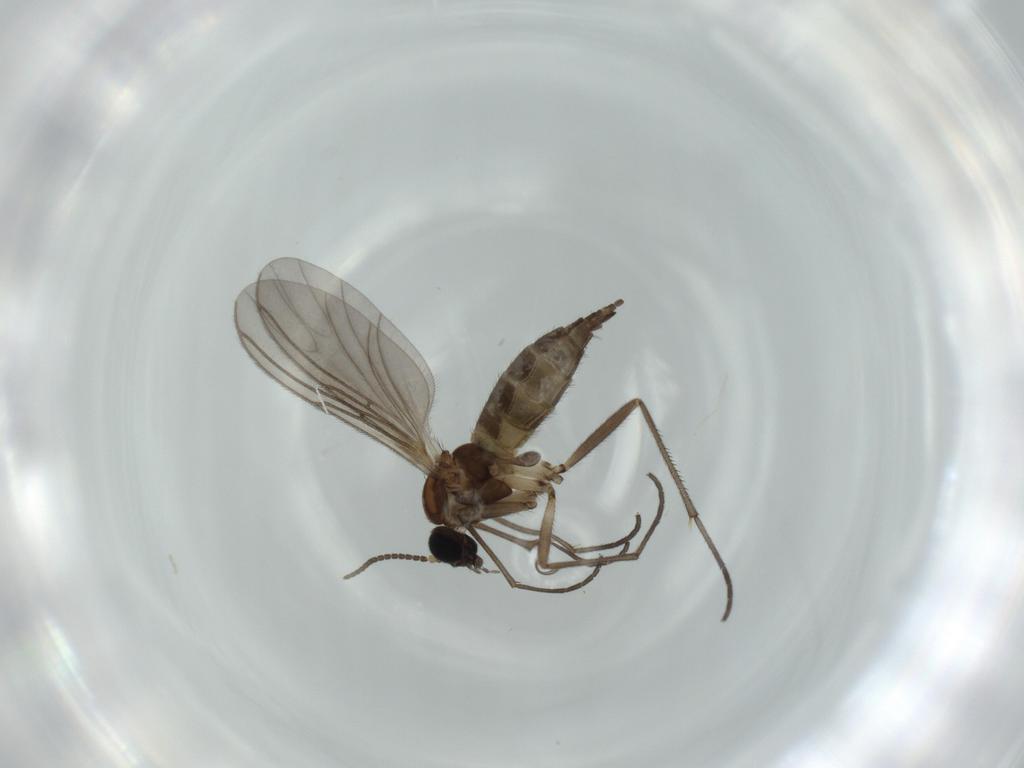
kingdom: Animalia
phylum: Arthropoda
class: Insecta
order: Diptera
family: Sciaridae
